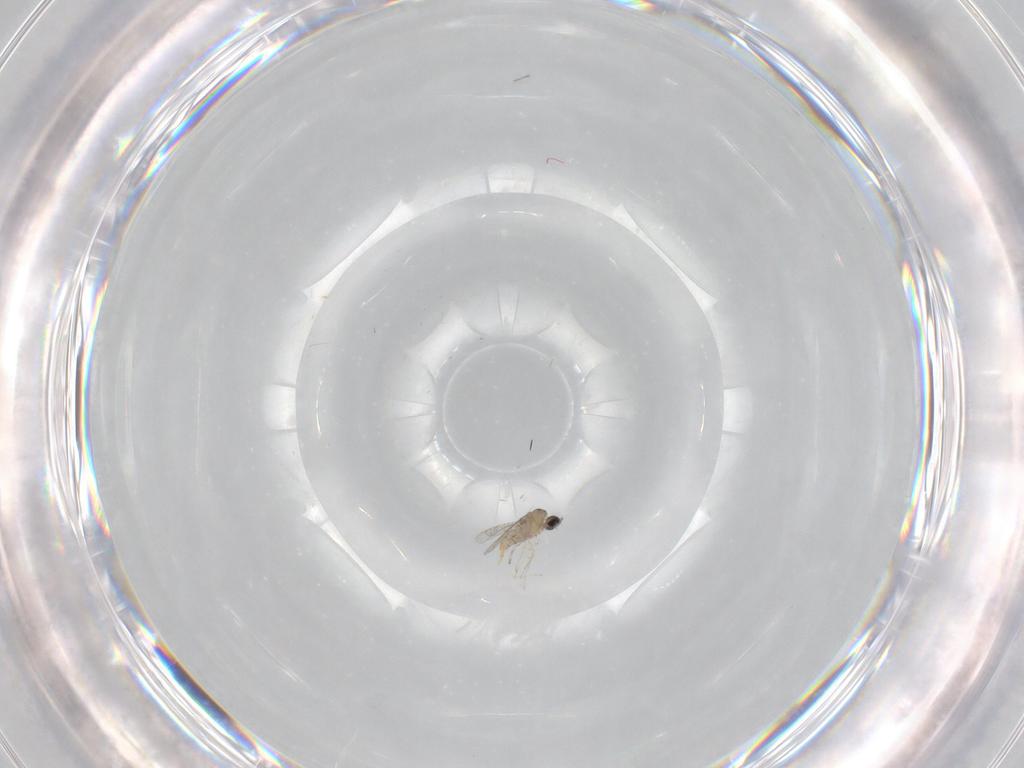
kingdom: Animalia
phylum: Arthropoda
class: Insecta
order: Diptera
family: Cecidomyiidae
